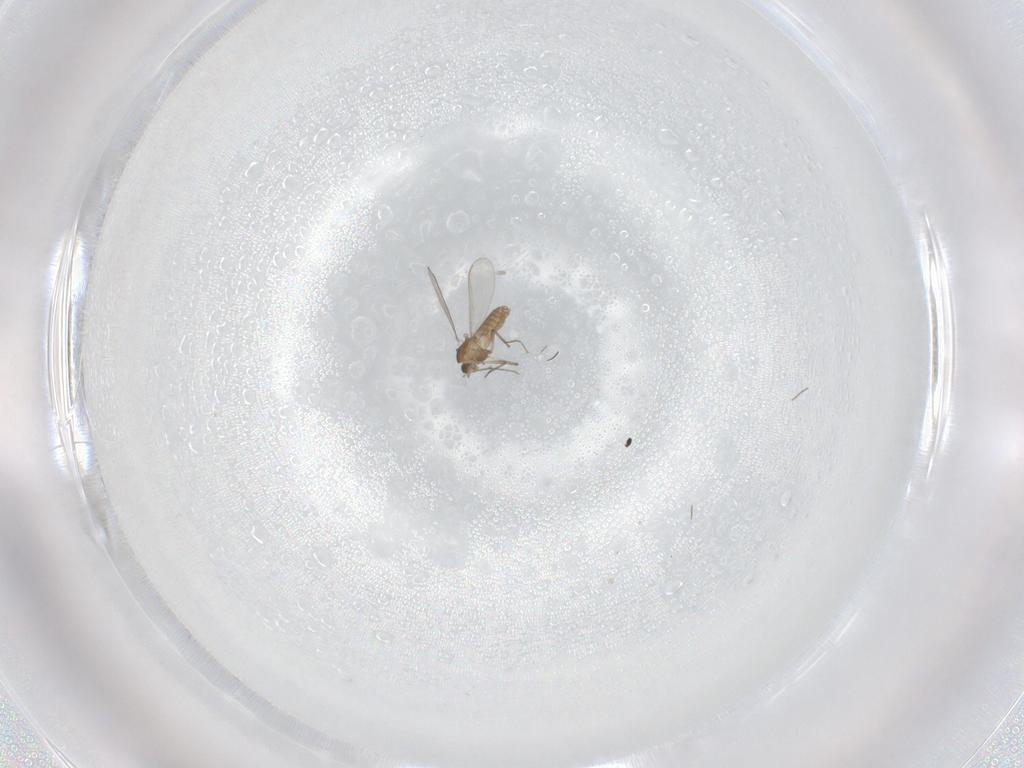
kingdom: Animalia
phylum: Arthropoda
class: Insecta
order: Diptera
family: Chironomidae
